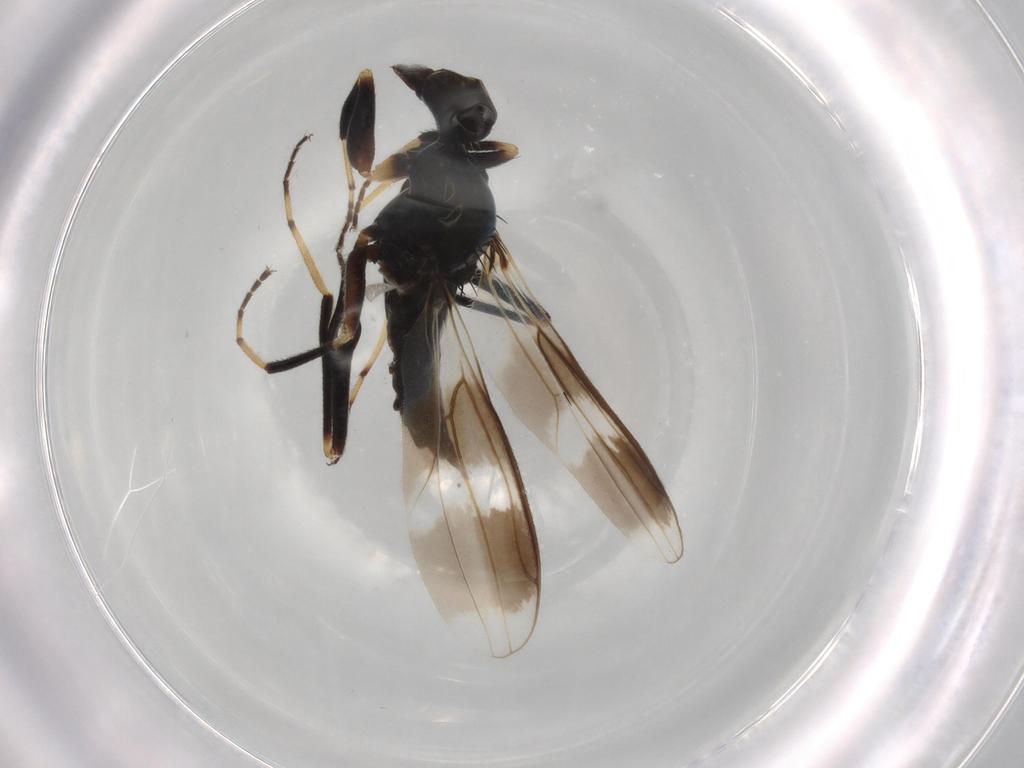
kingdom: Animalia
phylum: Arthropoda
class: Insecta
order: Diptera
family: Hybotidae
